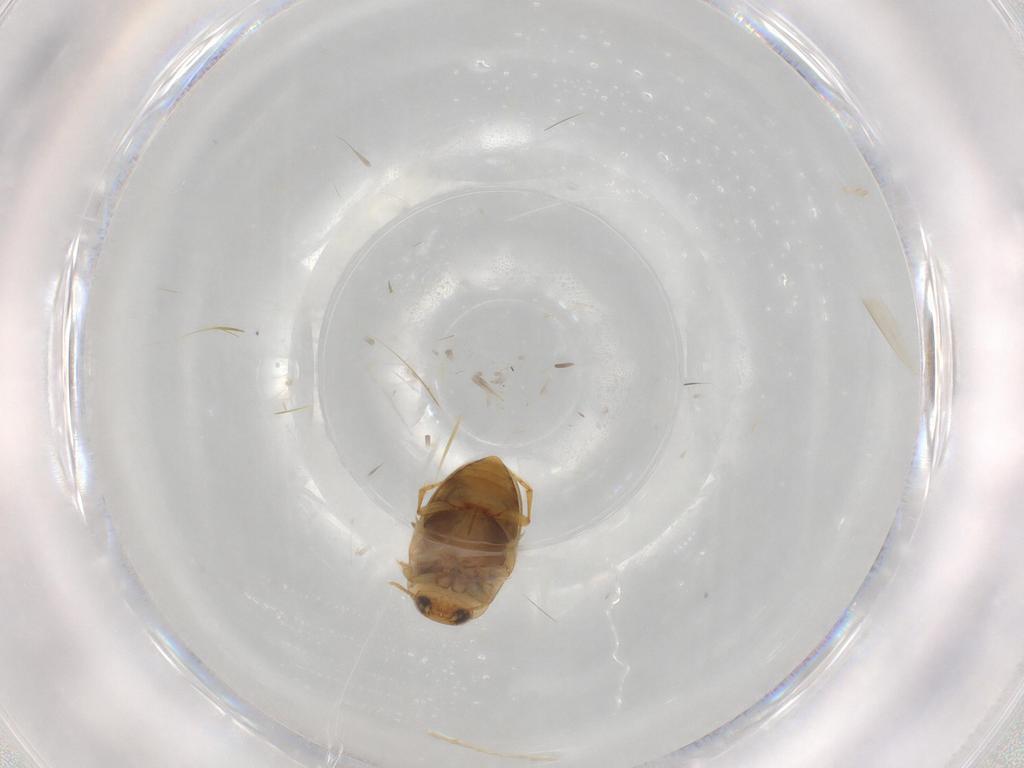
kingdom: Animalia
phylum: Arthropoda
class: Insecta
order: Coleoptera
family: Dytiscidae
